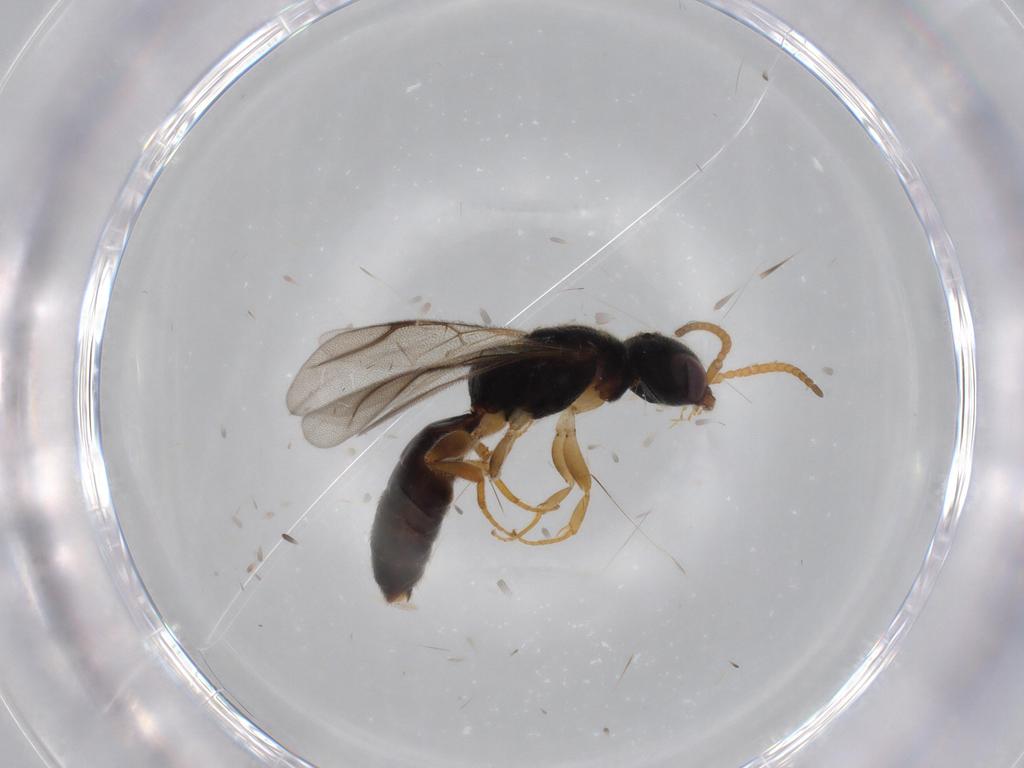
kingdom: Animalia
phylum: Arthropoda
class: Insecta
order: Hymenoptera
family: Bethylidae
